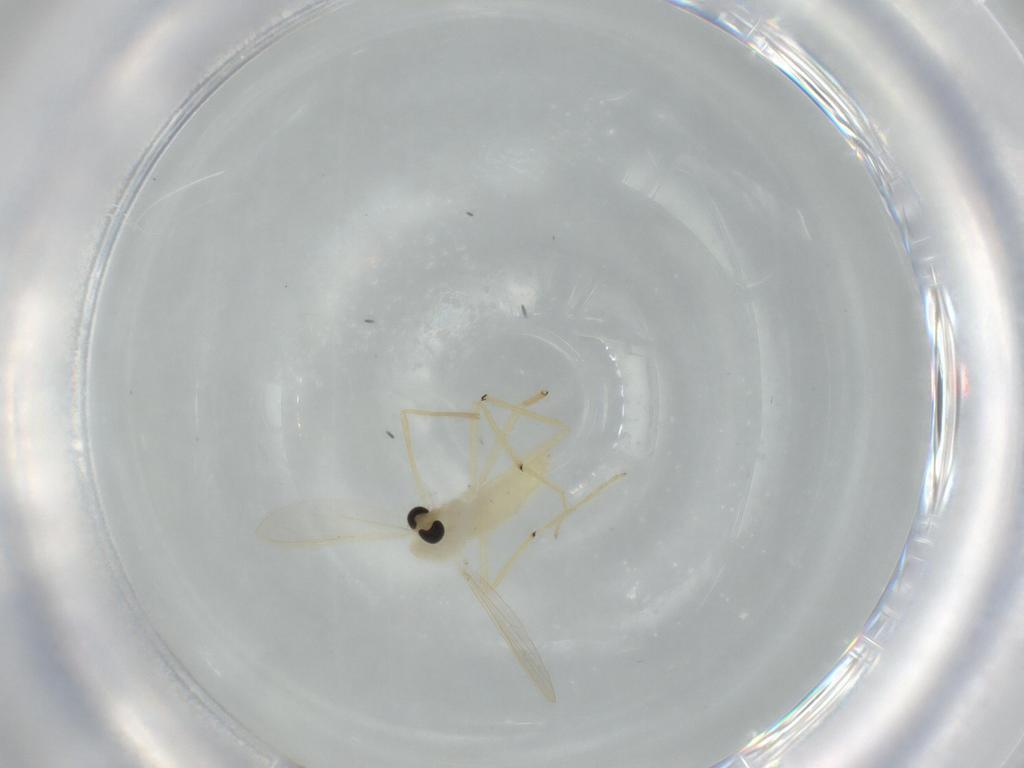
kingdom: Animalia
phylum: Arthropoda
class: Insecta
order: Diptera
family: Chironomidae
